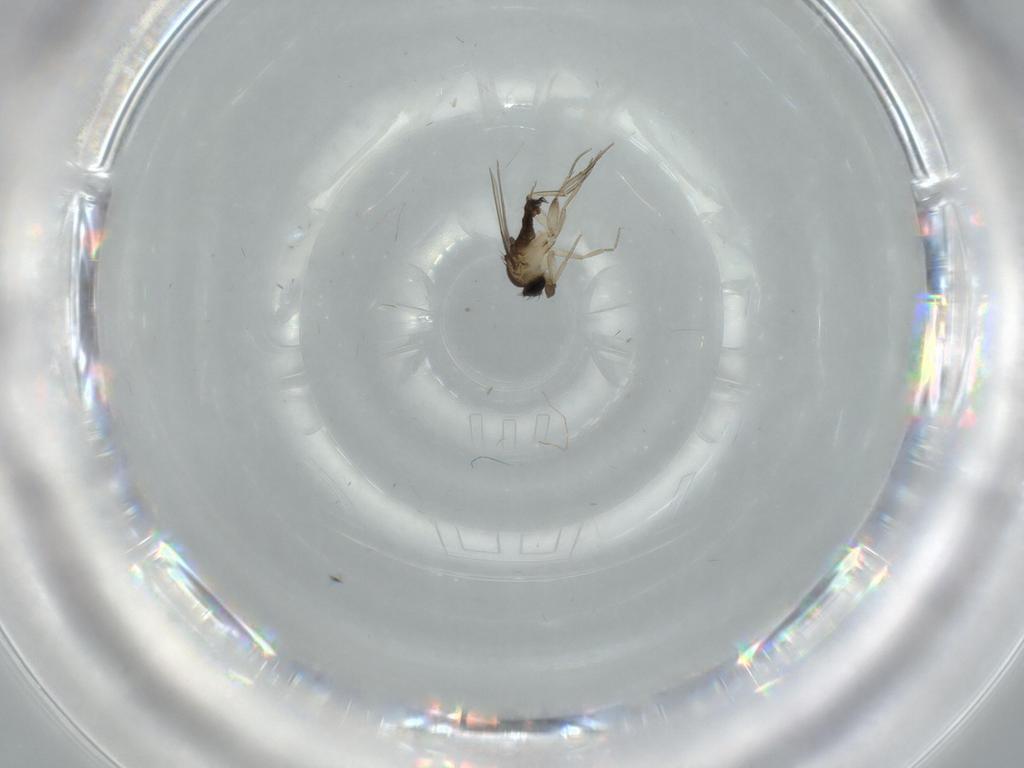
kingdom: Animalia
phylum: Arthropoda
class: Insecta
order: Diptera
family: Phoridae
